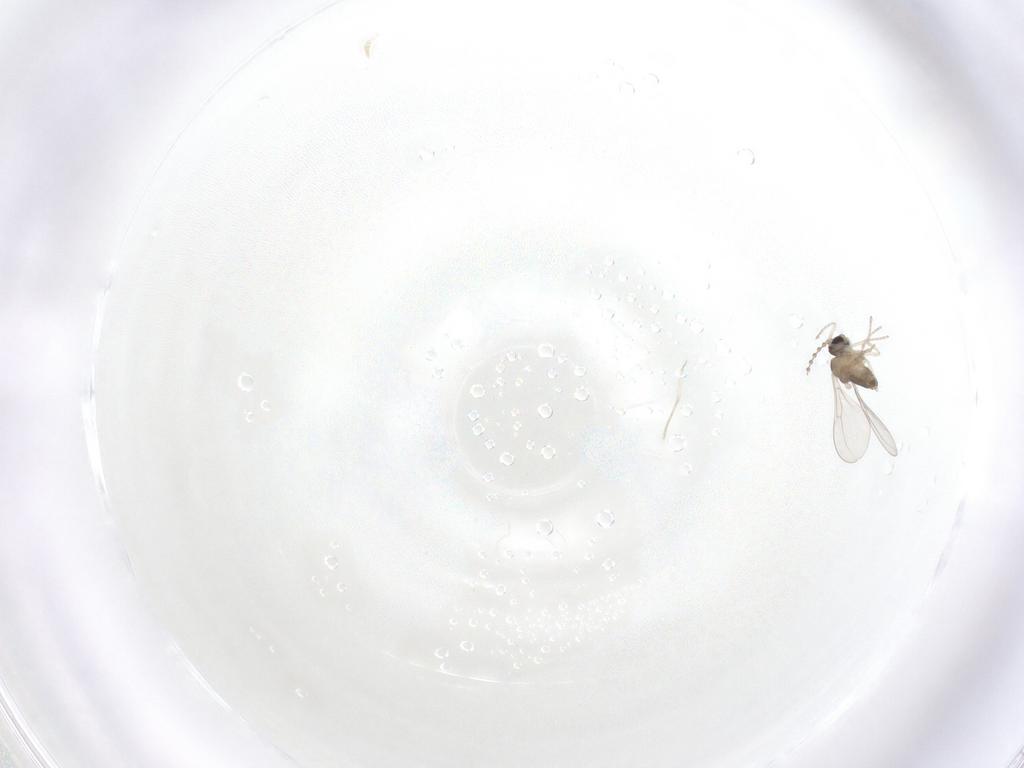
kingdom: Animalia
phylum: Arthropoda
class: Insecta
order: Diptera
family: Cecidomyiidae
